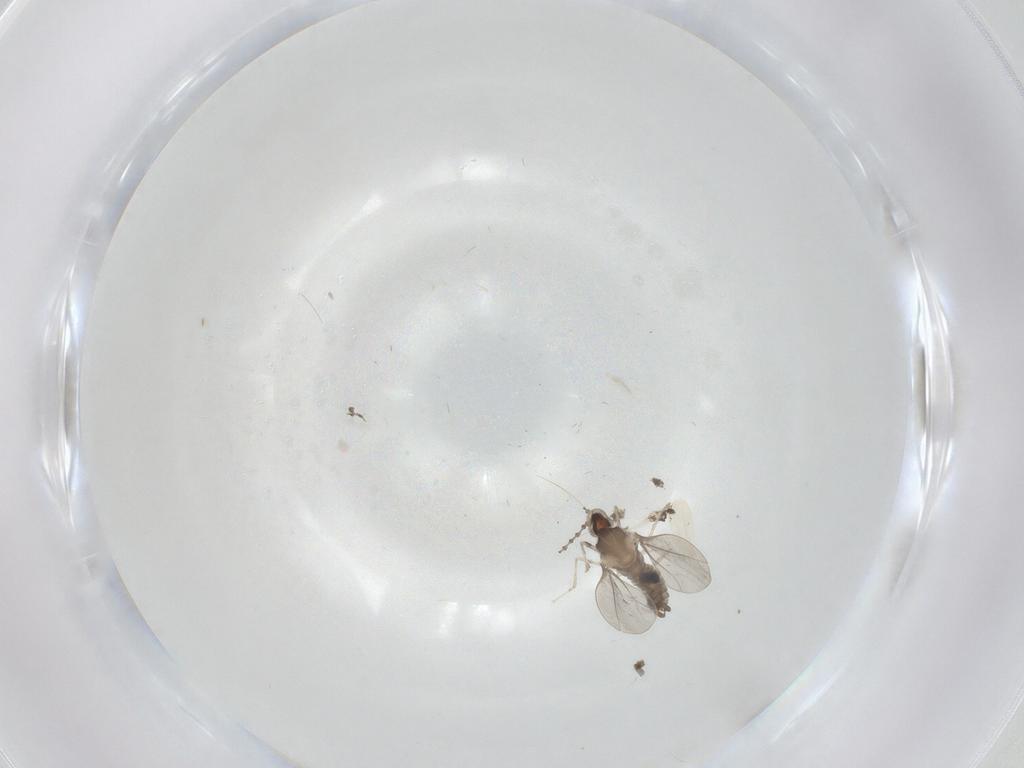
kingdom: Animalia
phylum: Arthropoda
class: Insecta
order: Diptera
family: Cecidomyiidae
